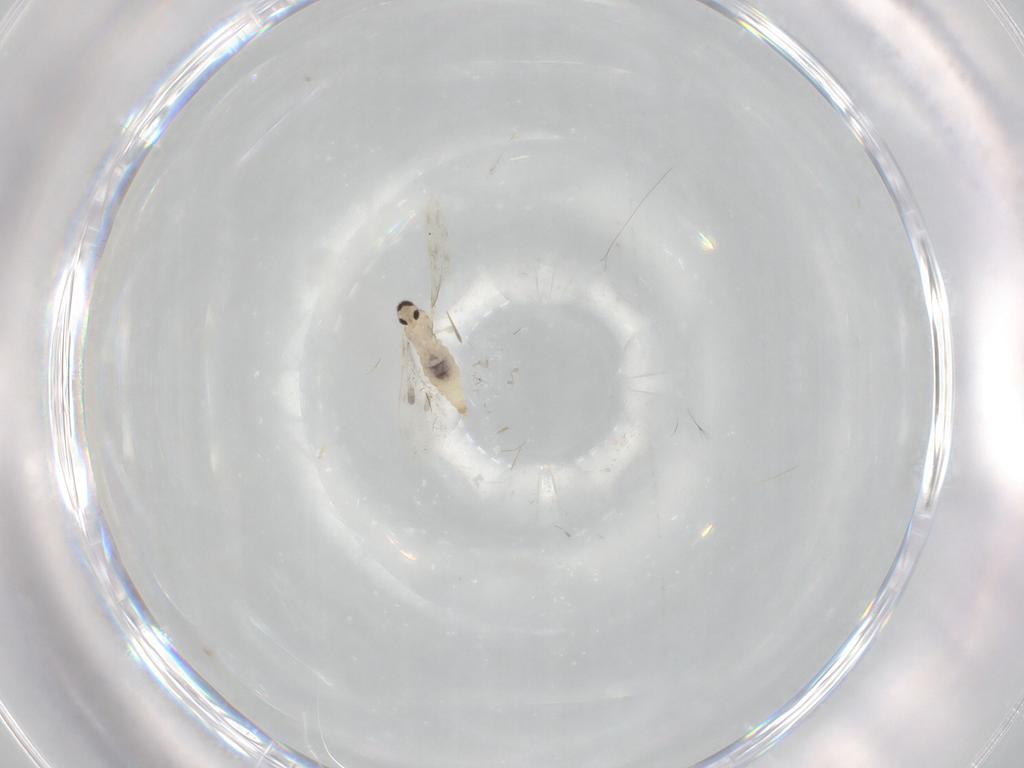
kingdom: Animalia
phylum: Arthropoda
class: Insecta
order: Diptera
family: Cecidomyiidae
